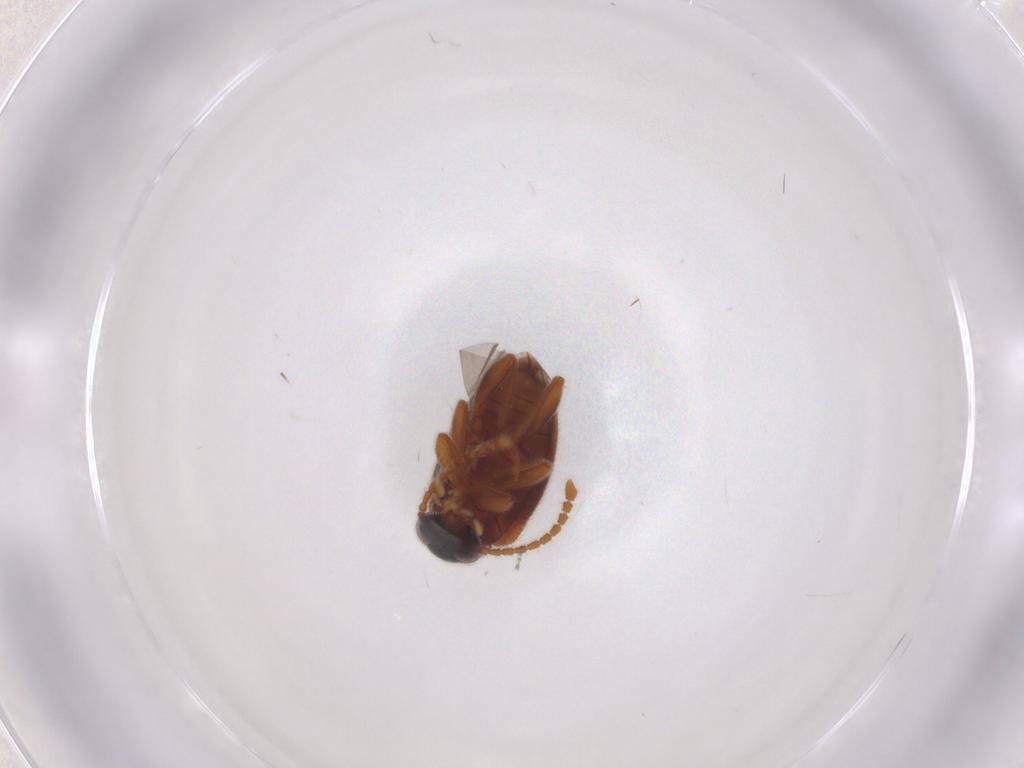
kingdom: Animalia
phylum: Arthropoda
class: Insecta
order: Coleoptera
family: Aderidae
